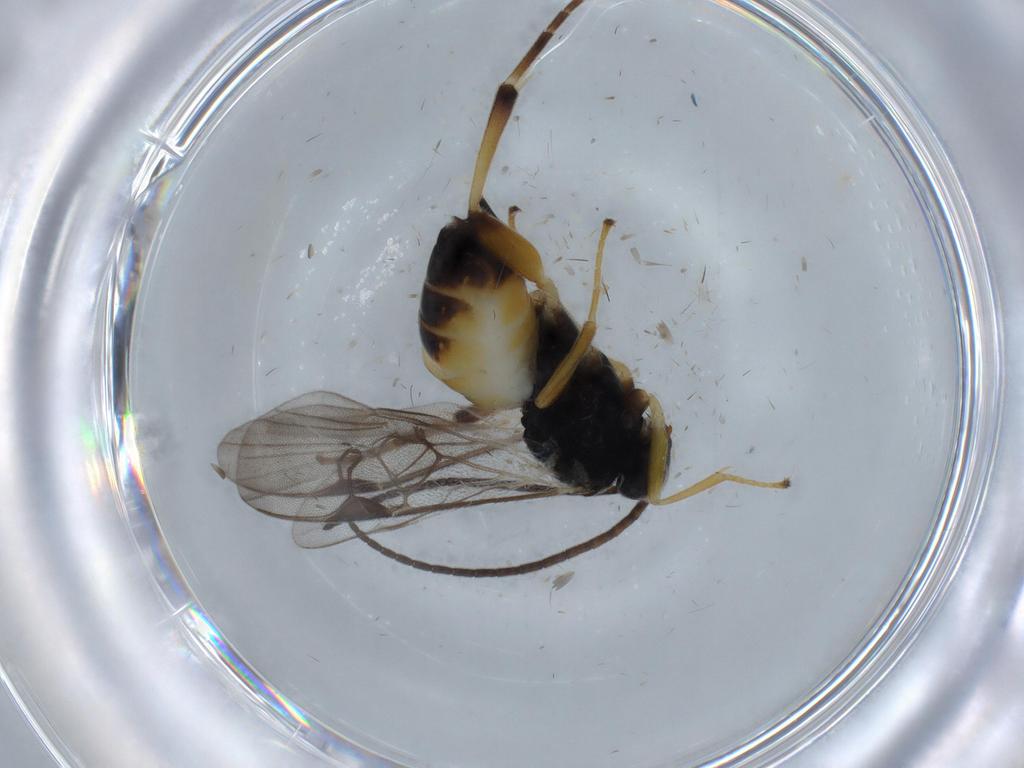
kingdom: Animalia
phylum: Arthropoda
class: Insecta
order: Hymenoptera
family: Braconidae
